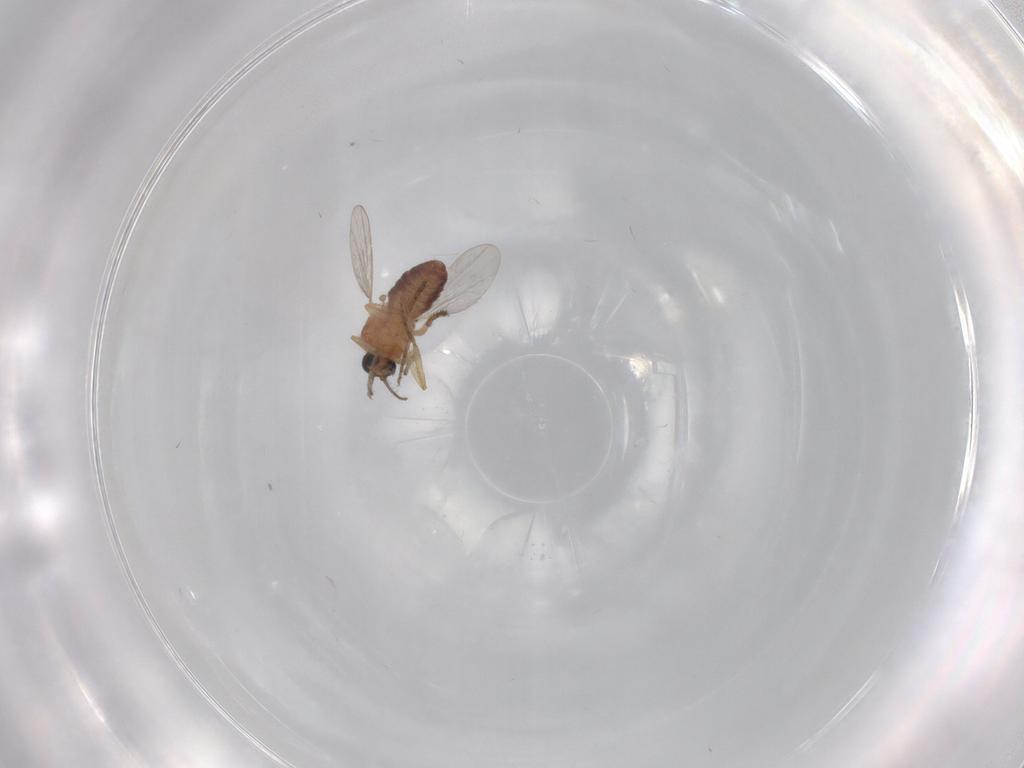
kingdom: Animalia
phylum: Arthropoda
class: Insecta
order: Diptera
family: Ceratopogonidae
